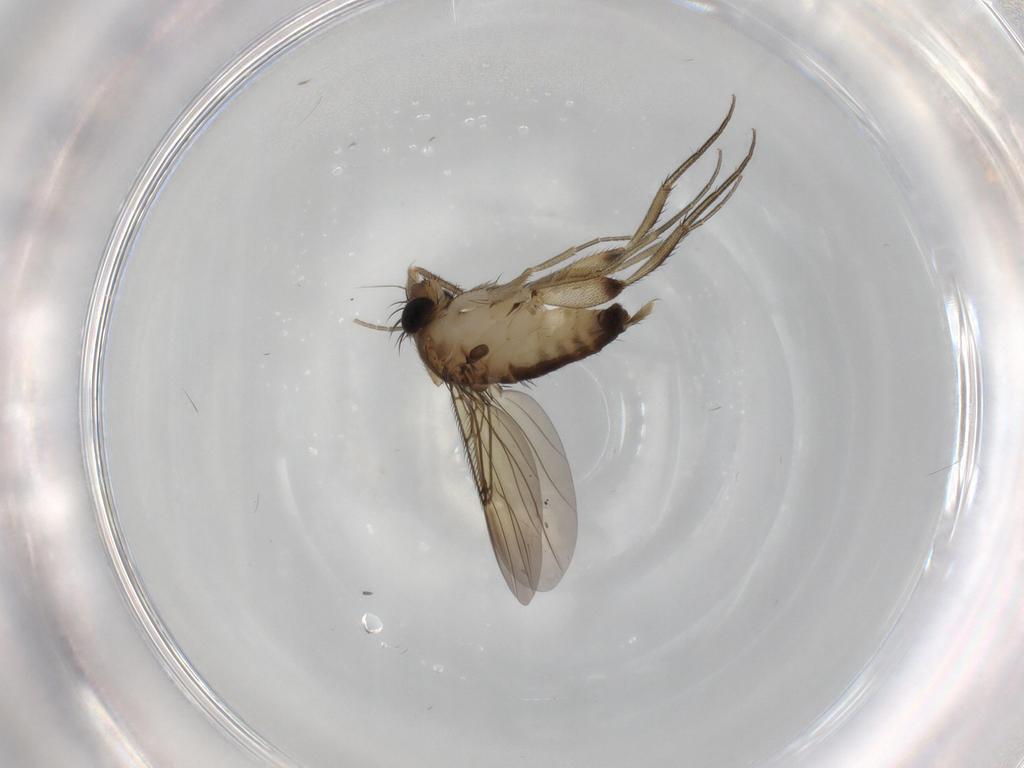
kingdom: Animalia
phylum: Arthropoda
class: Insecta
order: Diptera
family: Phoridae
